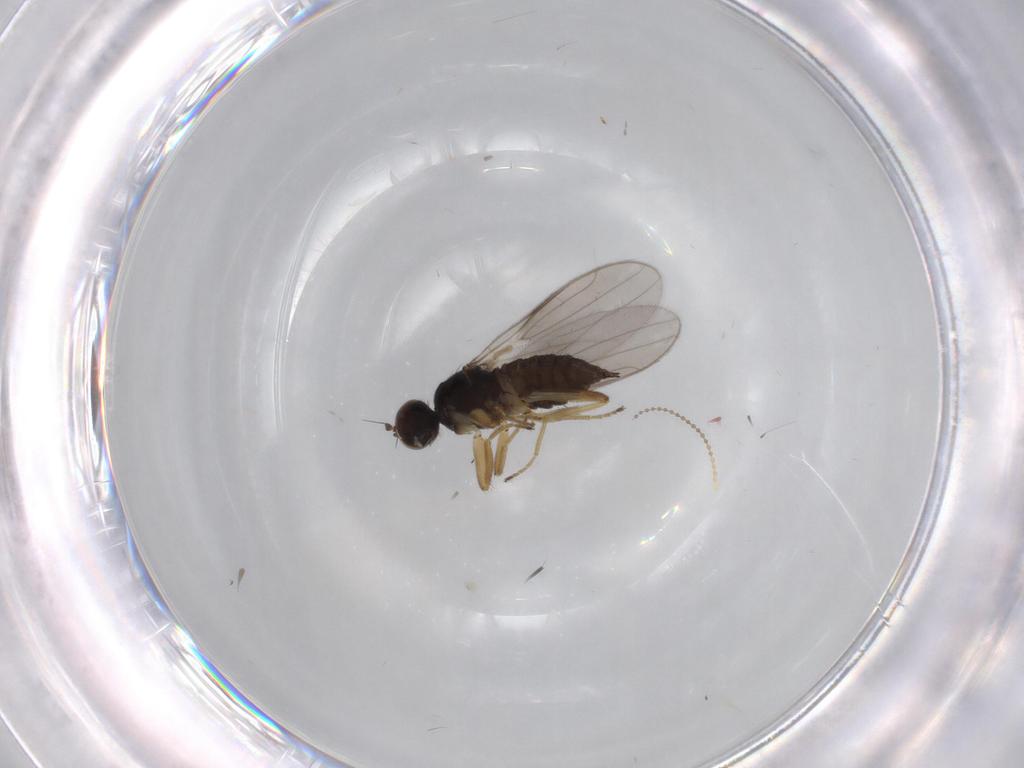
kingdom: Animalia
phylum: Arthropoda
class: Insecta
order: Diptera
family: Hybotidae
